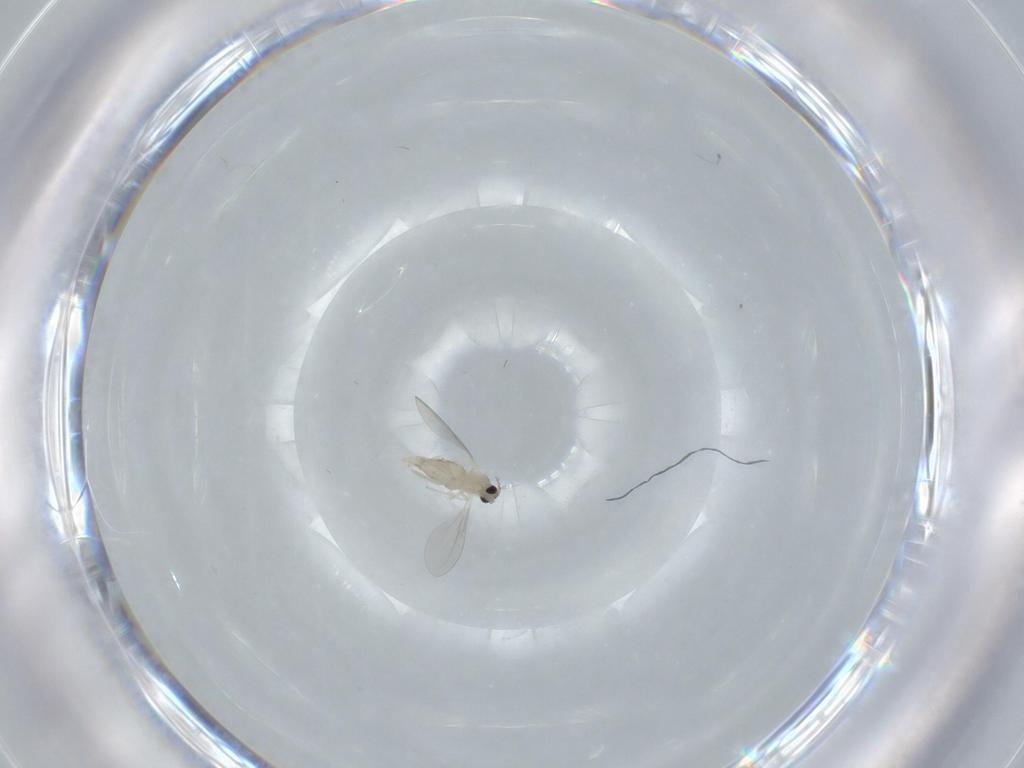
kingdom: Animalia
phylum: Arthropoda
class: Insecta
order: Diptera
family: Cecidomyiidae
